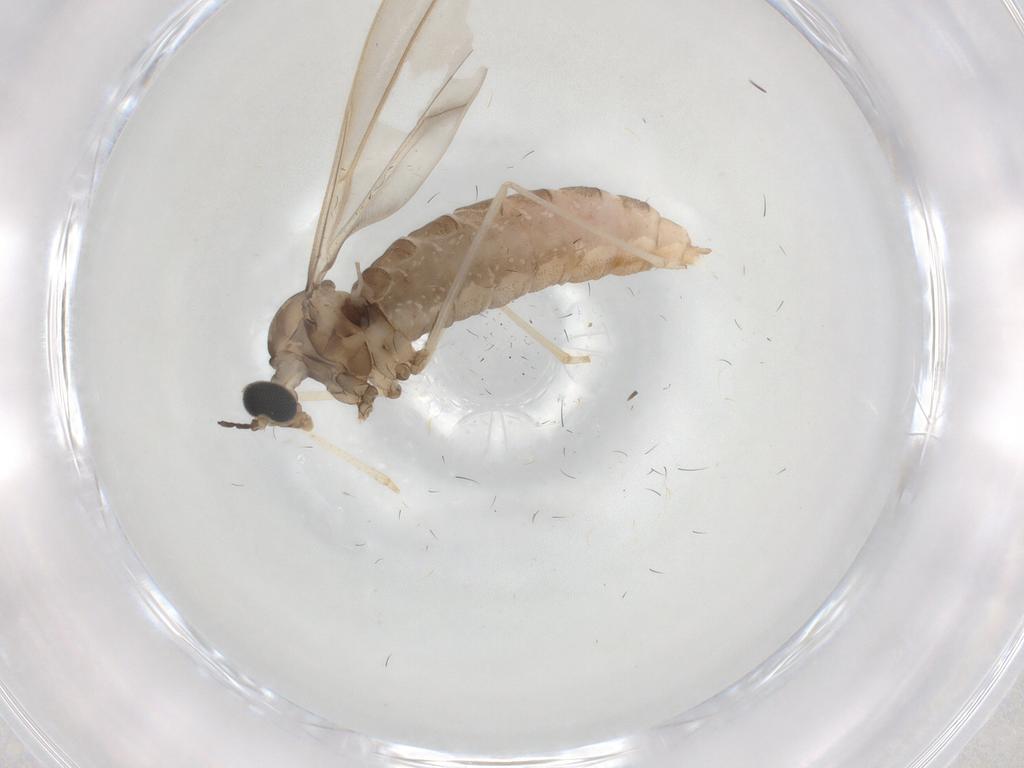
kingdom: Animalia
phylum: Arthropoda
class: Insecta
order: Diptera
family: Cecidomyiidae
